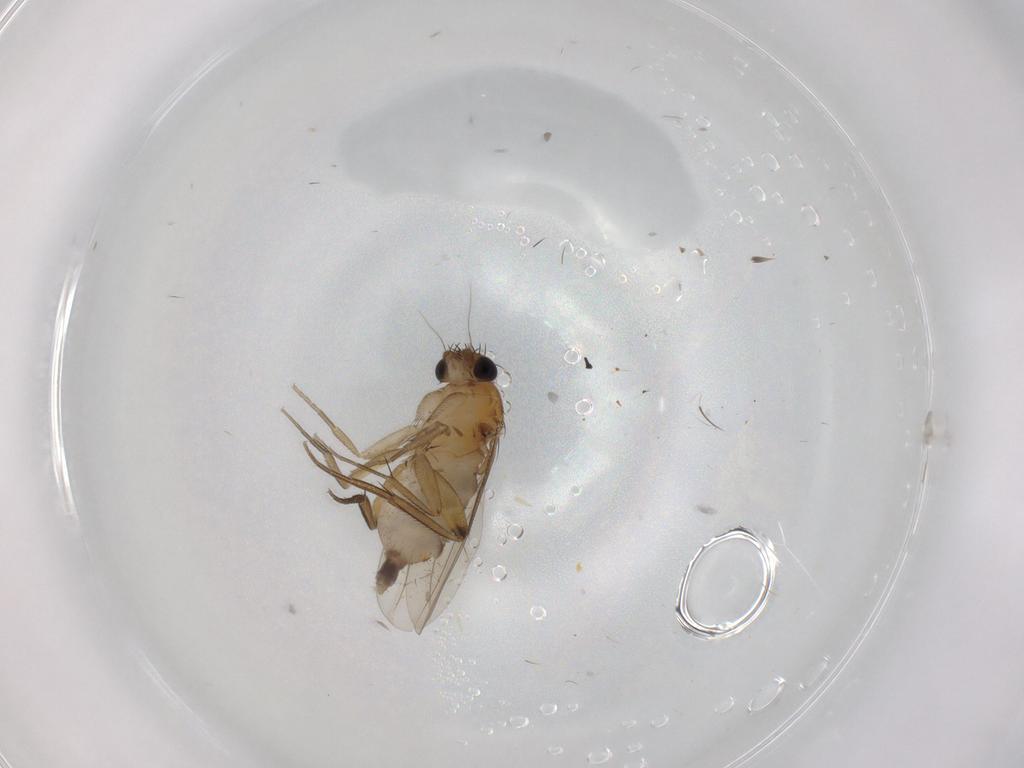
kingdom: Animalia
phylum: Arthropoda
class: Insecta
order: Diptera
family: Phoridae
